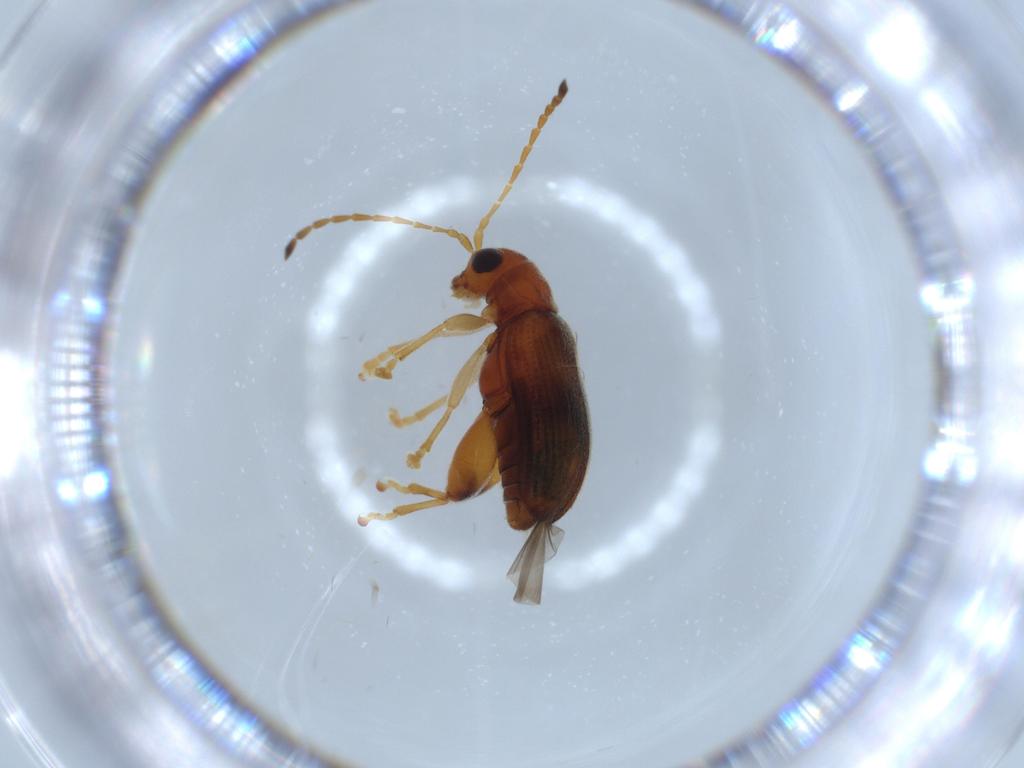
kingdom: Animalia
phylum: Arthropoda
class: Insecta
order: Coleoptera
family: Chrysomelidae
